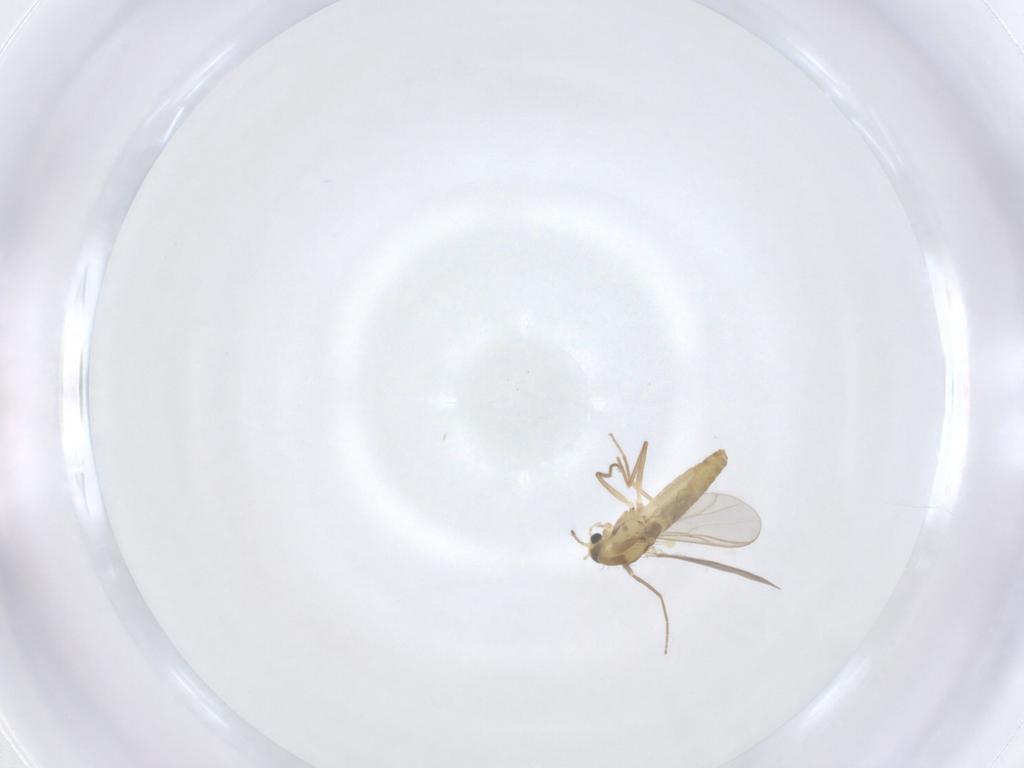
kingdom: Animalia
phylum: Arthropoda
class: Insecta
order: Diptera
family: Chironomidae
